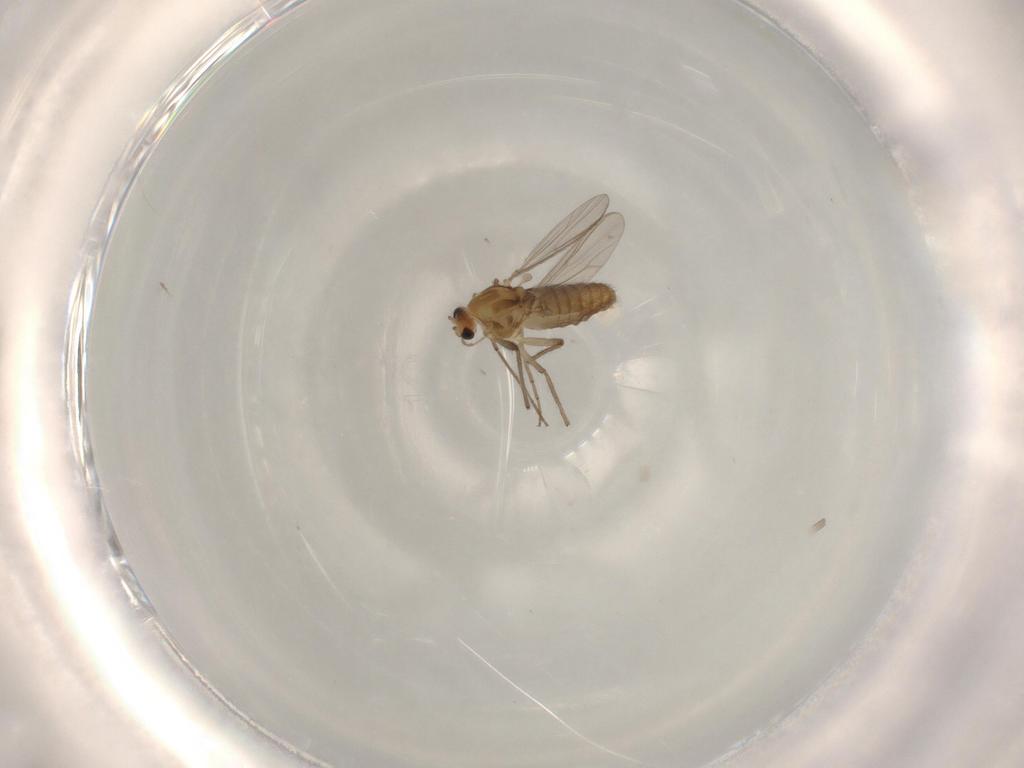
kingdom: Animalia
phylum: Arthropoda
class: Insecta
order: Diptera
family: Chironomidae
